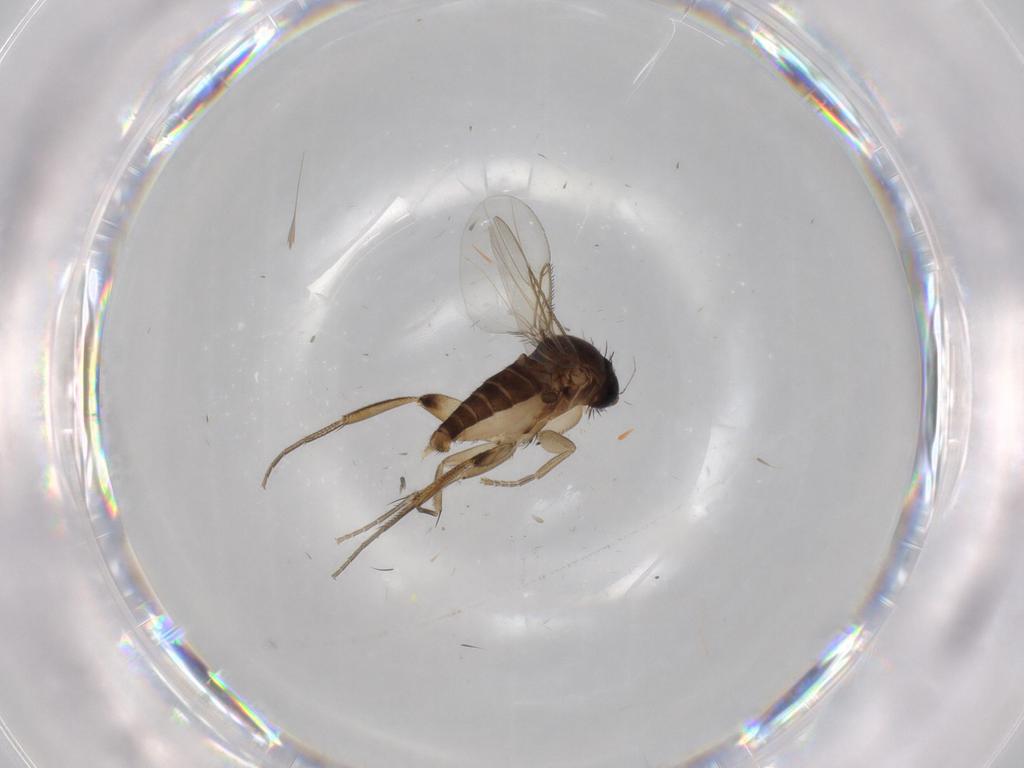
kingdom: Animalia
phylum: Arthropoda
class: Insecta
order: Diptera
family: Phoridae
